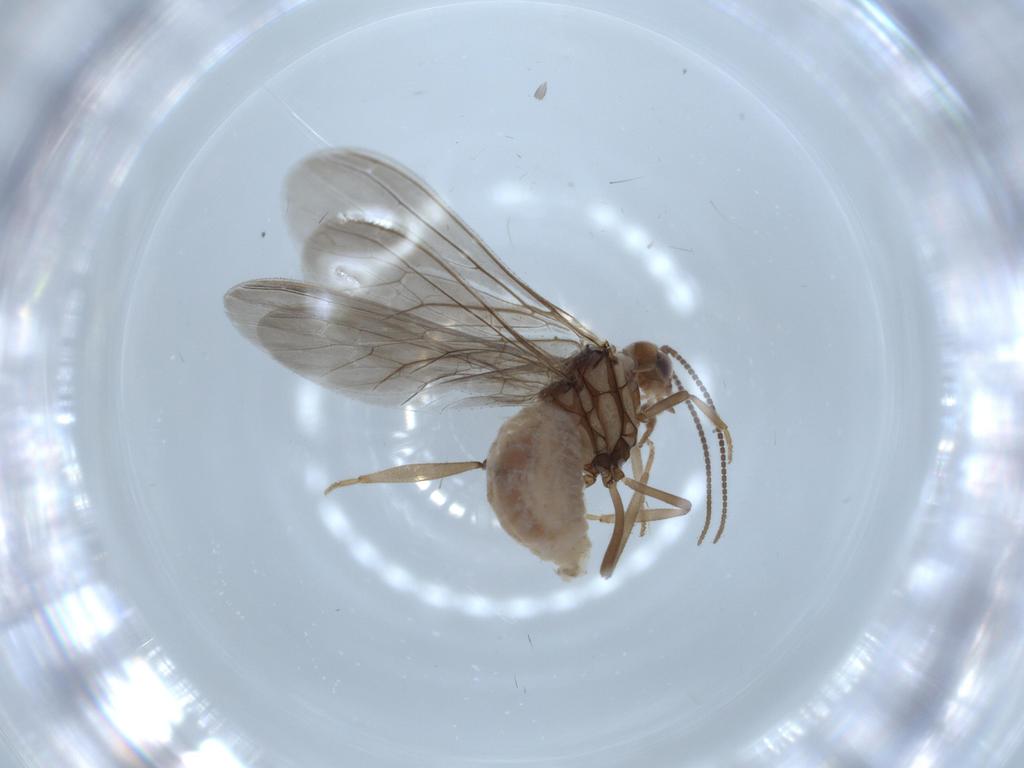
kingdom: Animalia
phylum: Arthropoda
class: Insecta
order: Neuroptera
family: Coniopterygidae
